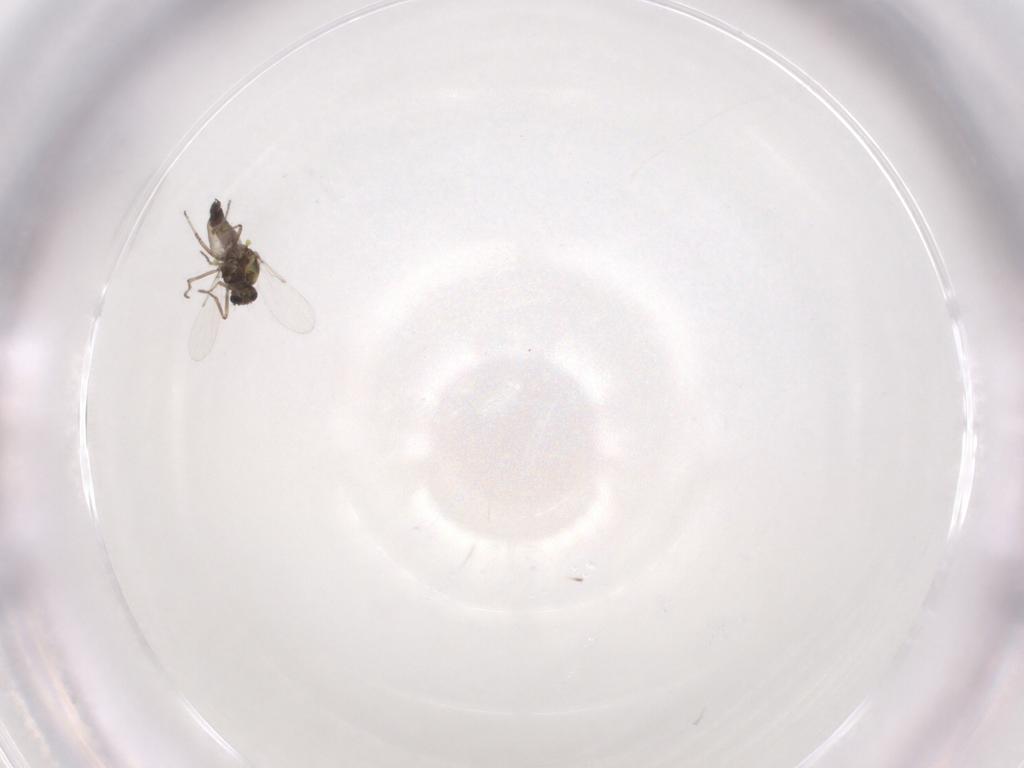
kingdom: Animalia
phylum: Arthropoda
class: Insecta
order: Diptera
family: Ceratopogonidae
